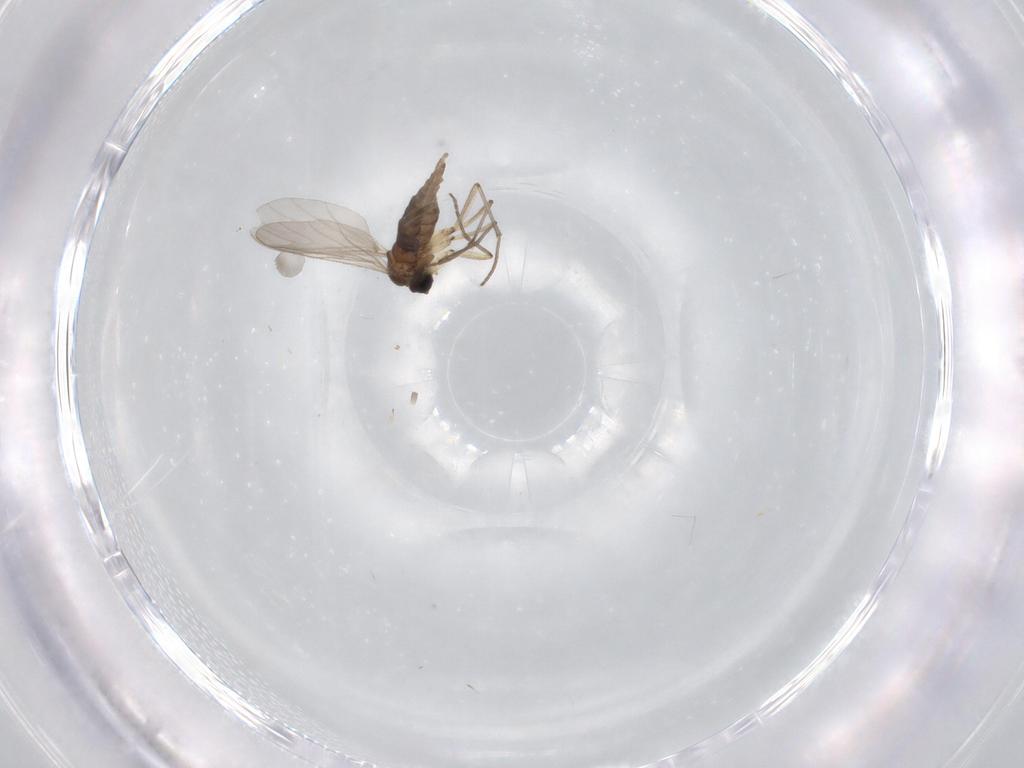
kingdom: Animalia
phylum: Arthropoda
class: Insecta
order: Diptera
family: Sciaridae
